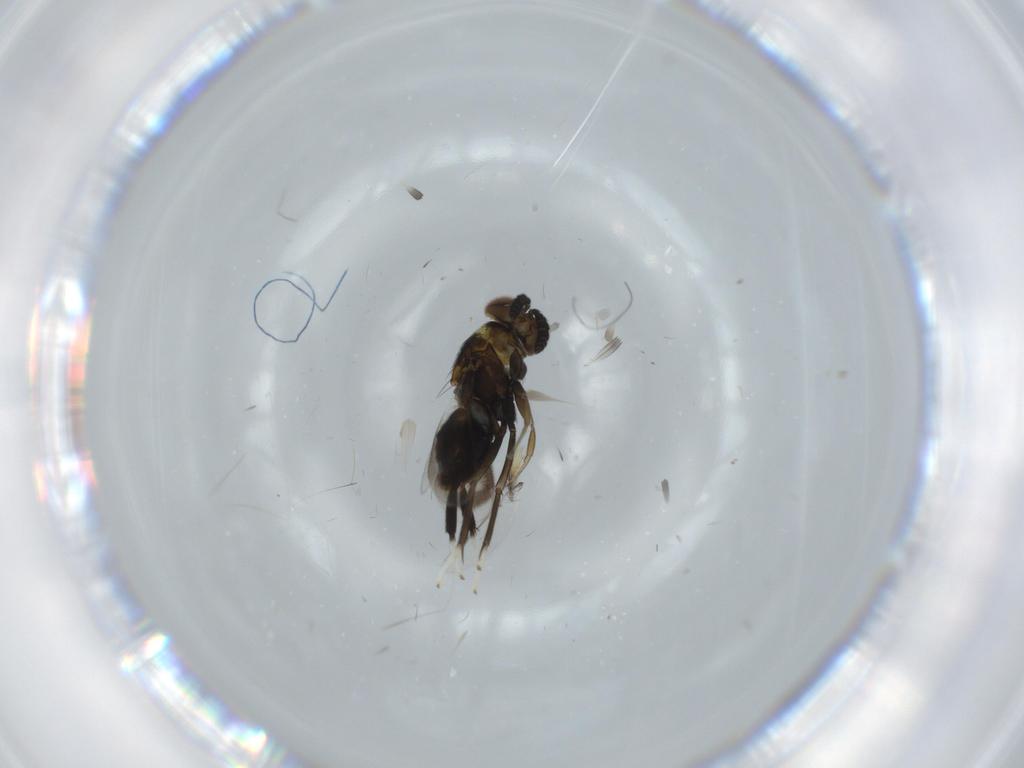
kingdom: Animalia
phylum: Arthropoda
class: Insecta
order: Hymenoptera
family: Aphelinidae
